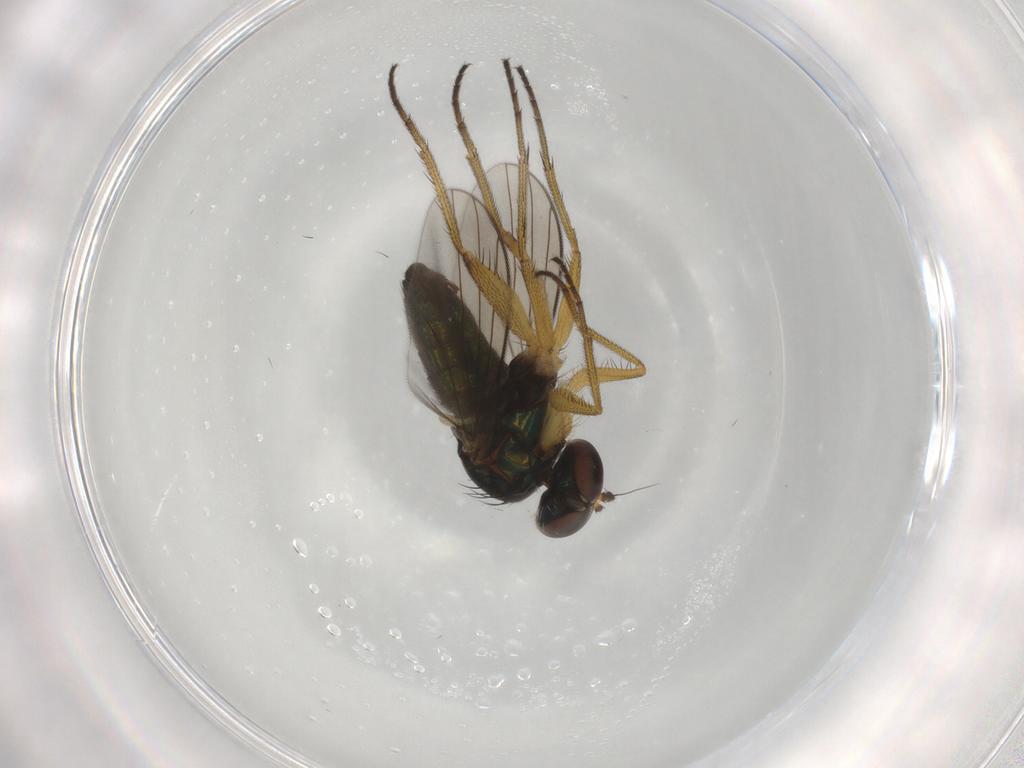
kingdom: Animalia
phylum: Arthropoda
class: Insecta
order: Diptera
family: Dolichopodidae
